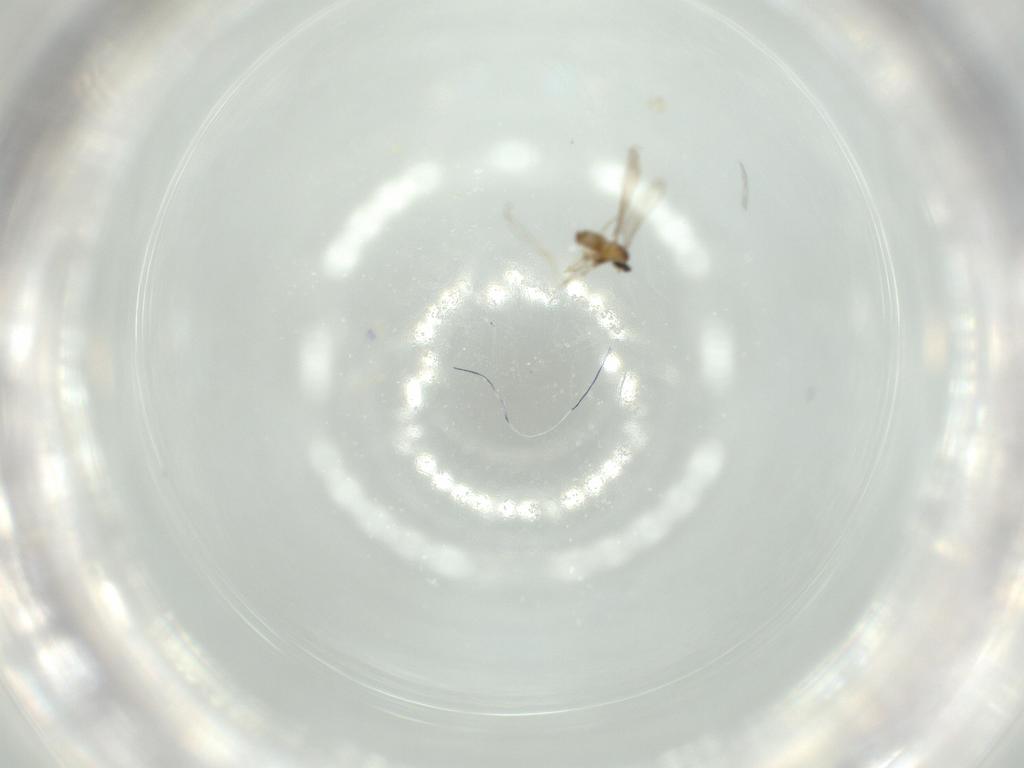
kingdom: Animalia
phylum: Arthropoda
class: Insecta
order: Diptera
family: Cecidomyiidae
